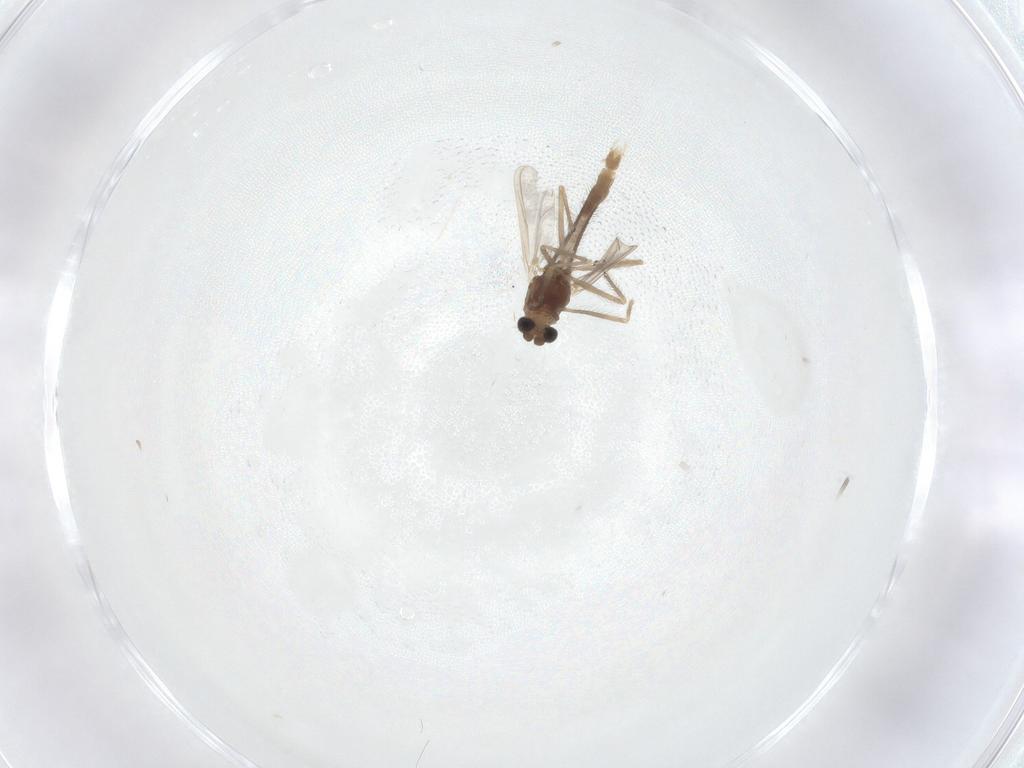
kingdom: Animalia
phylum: Arthropoda
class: Insecta
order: Diptera
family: Chironomidae
